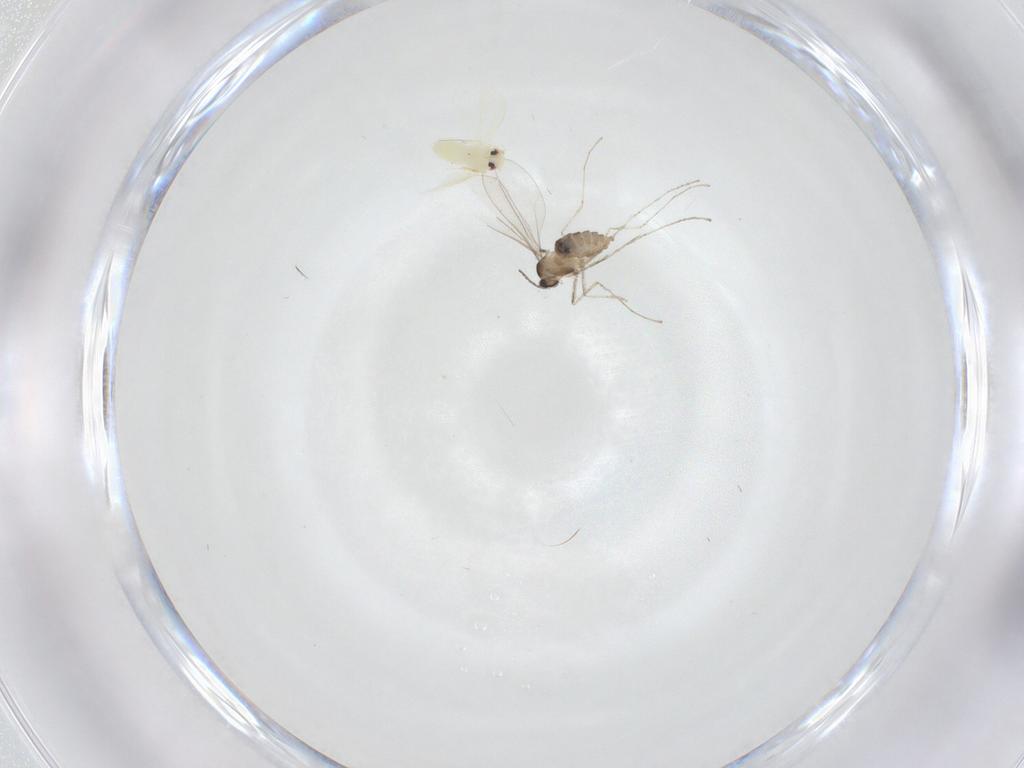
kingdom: Animalia
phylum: Arthropoda
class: Insecta
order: Diptera
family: Cecidomyiidae
